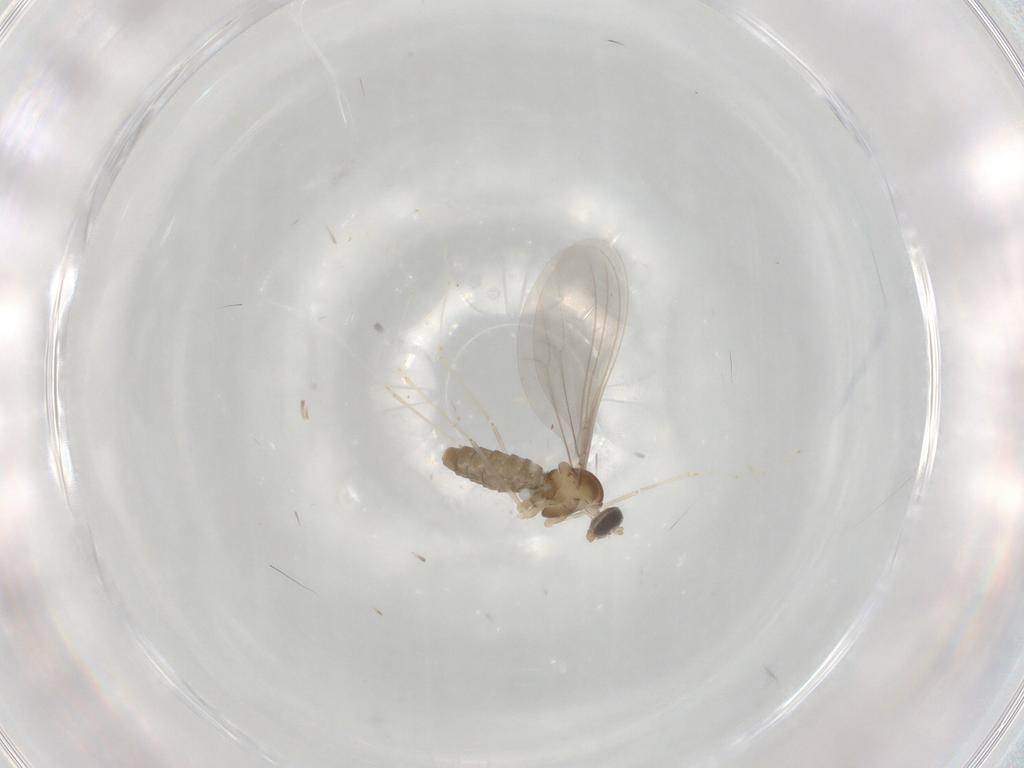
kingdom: Animalia
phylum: Arthropoda
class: Insecta
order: Diptera
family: Cecidomyiidae
